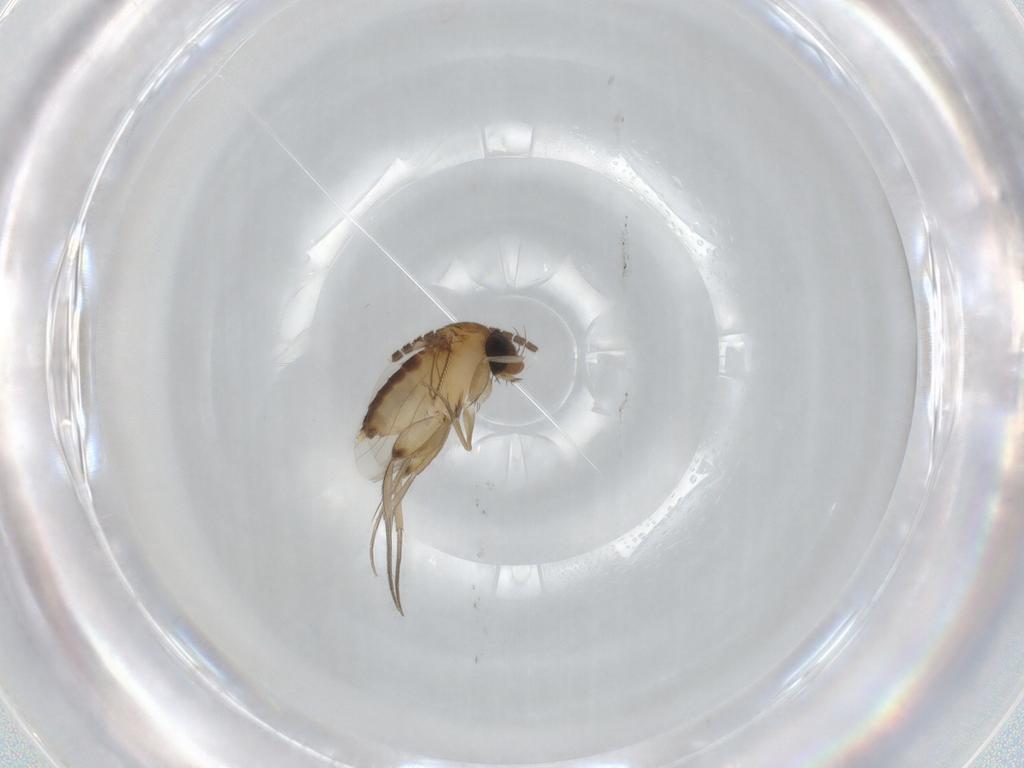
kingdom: Animalia
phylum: Arthropoda
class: Insecta
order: Diptera
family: Phoridae
